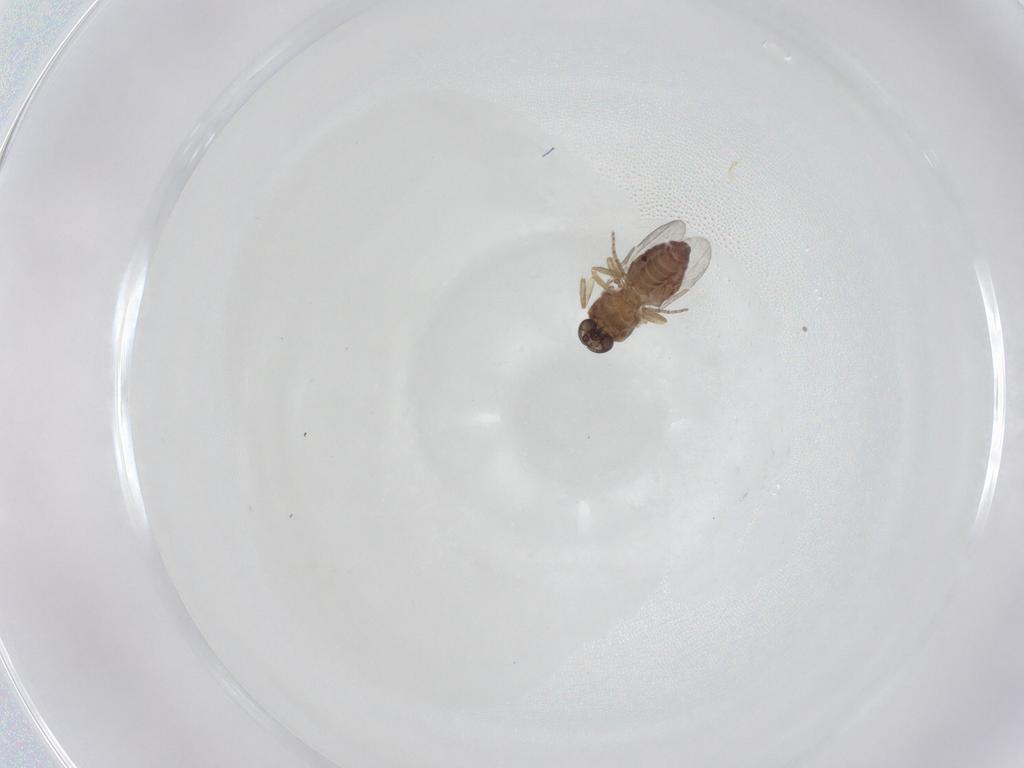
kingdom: Animalia
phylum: Arthropoda
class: Insecta
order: Diptera
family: Ceratopogonidae
